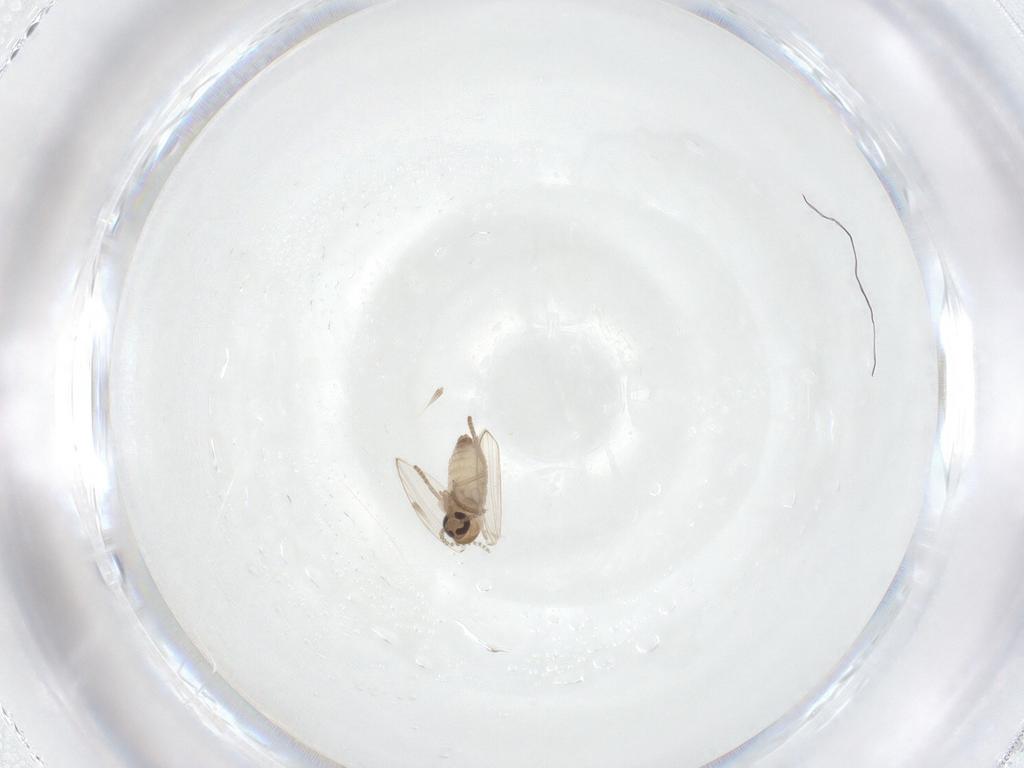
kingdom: Animalia
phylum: Arthropoda
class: Insecta
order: Diptera
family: Psychodidae
